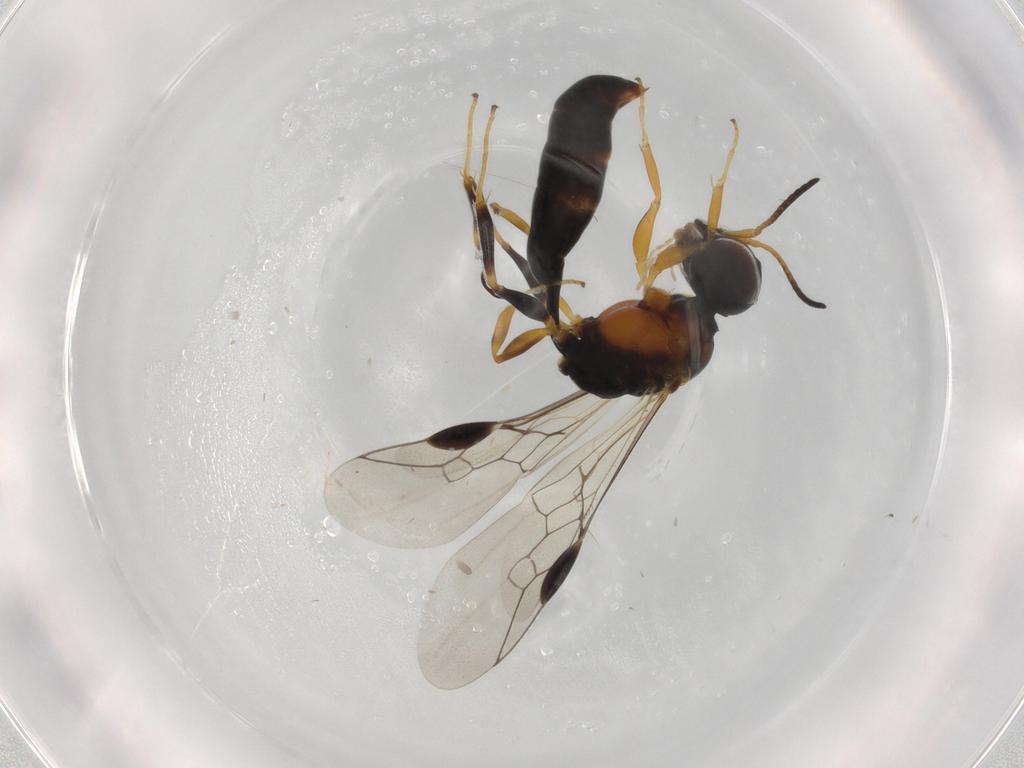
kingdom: Animalia
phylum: Arthropoda
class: Insecta
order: Hymenoptera
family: Pemphredonidae
